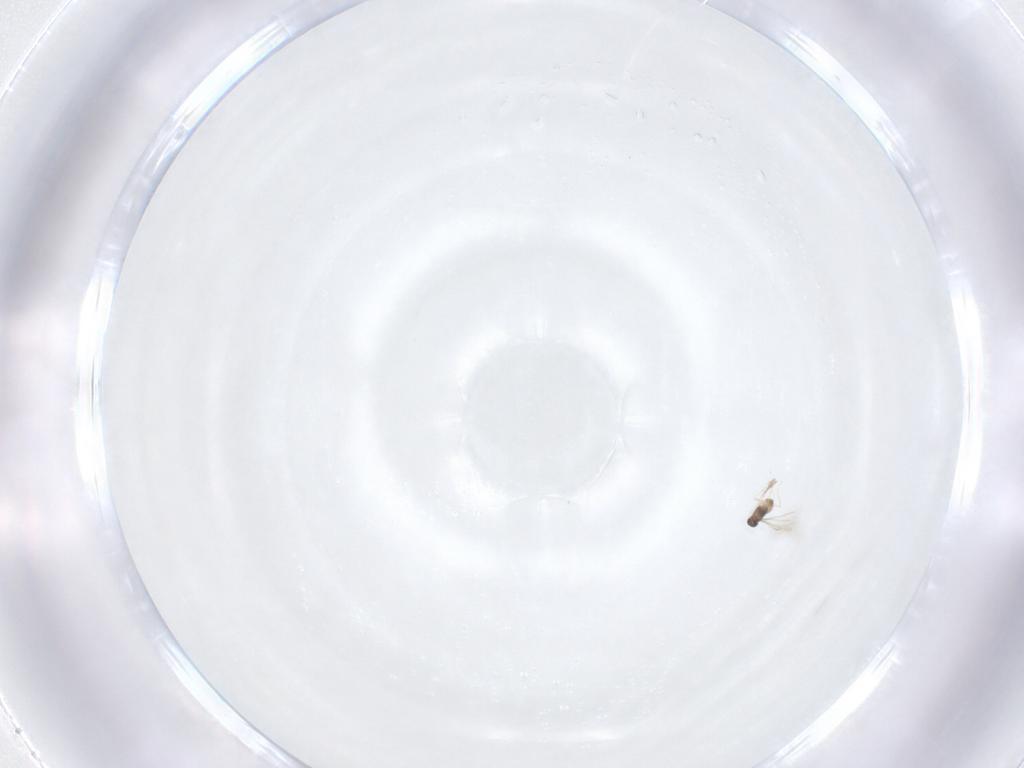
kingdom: Animalia
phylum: Arthropoda
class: Insecta
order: Hymenoptera
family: Mymaridae
